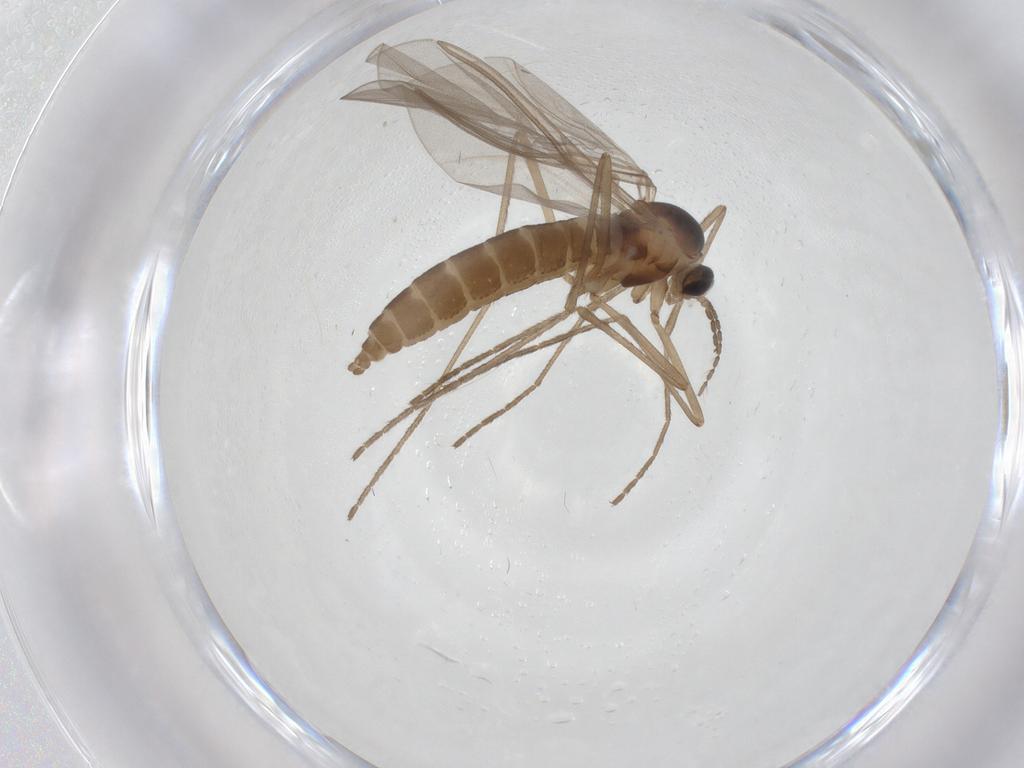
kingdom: Animalia
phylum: Arthropoda
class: Insecta
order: Diptera
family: Cecidomyiidae
